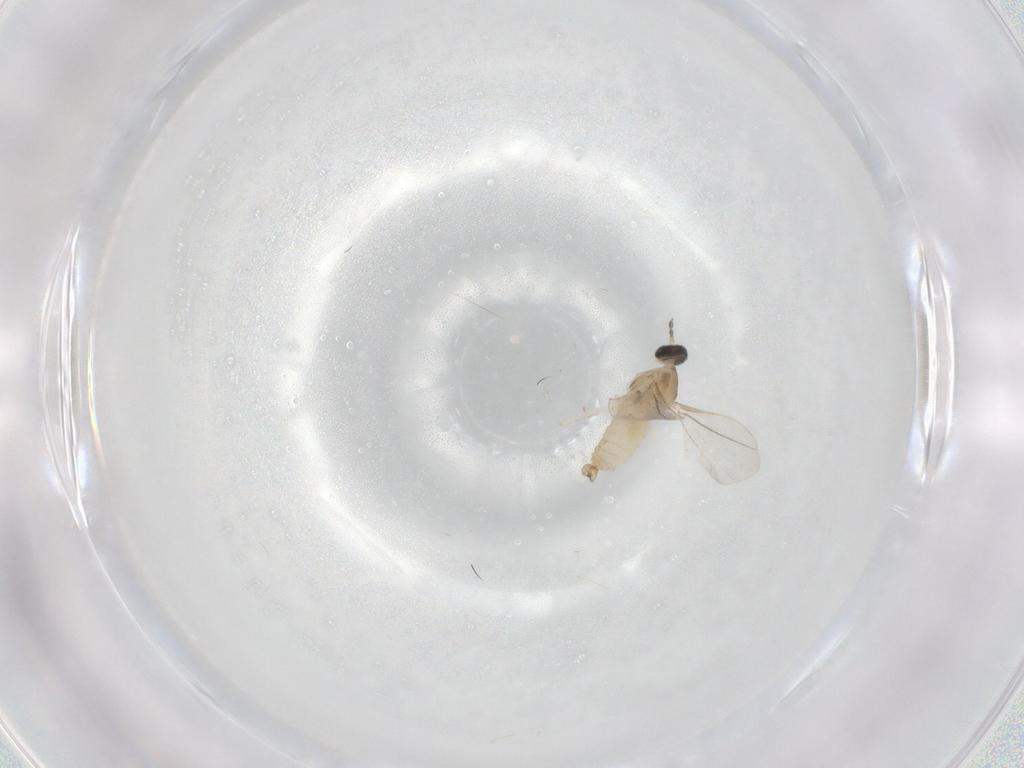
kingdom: Animalia
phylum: Arthropoda
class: Insecta
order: Diptera
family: Cecidomyiidae
